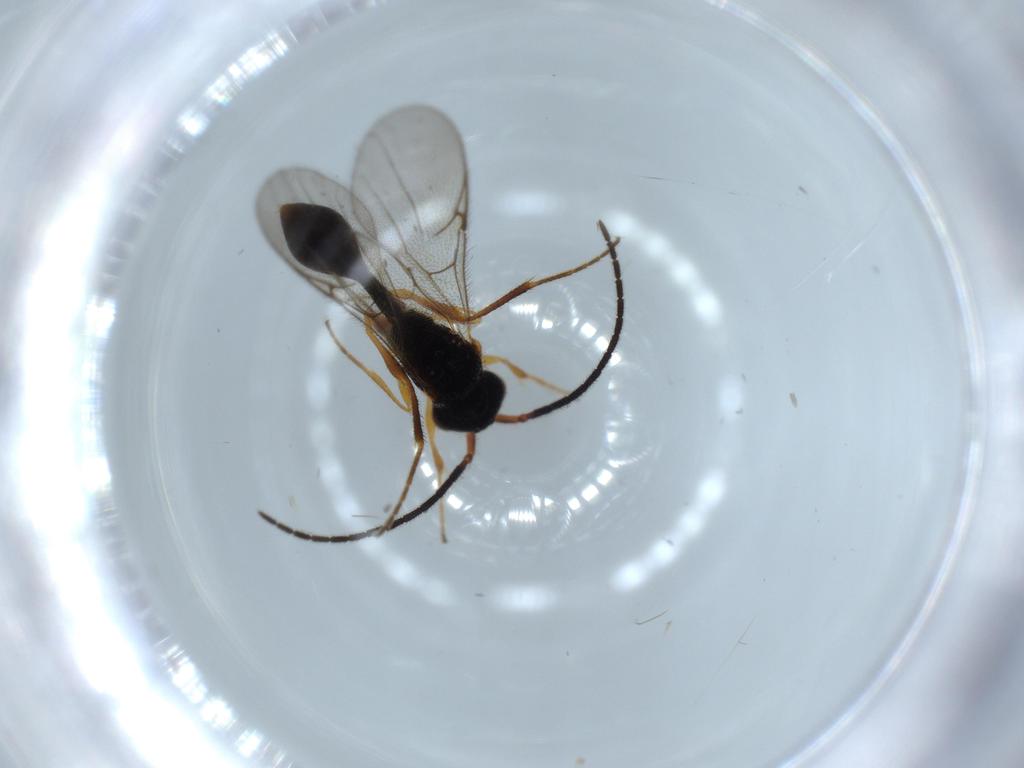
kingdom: Animalia
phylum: Arthropoda
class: Insecta
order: Hymenoptera
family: Diapriidae
